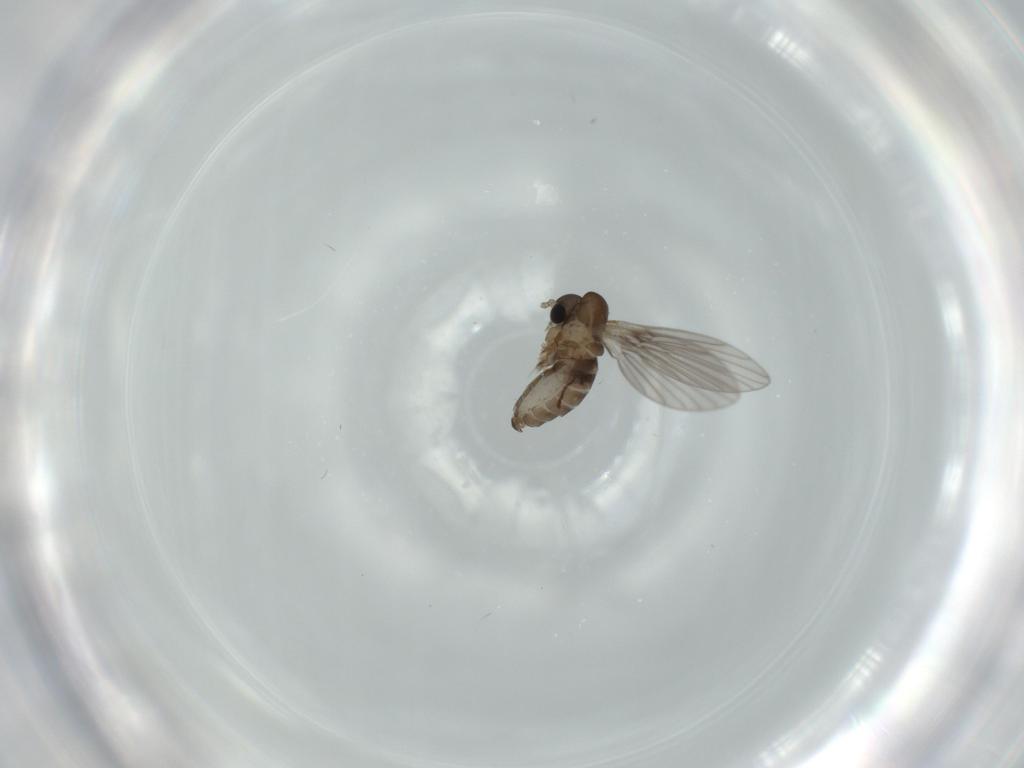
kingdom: Animalia
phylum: Arthropoda
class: Insecta
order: Diptera
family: Psychodidae
